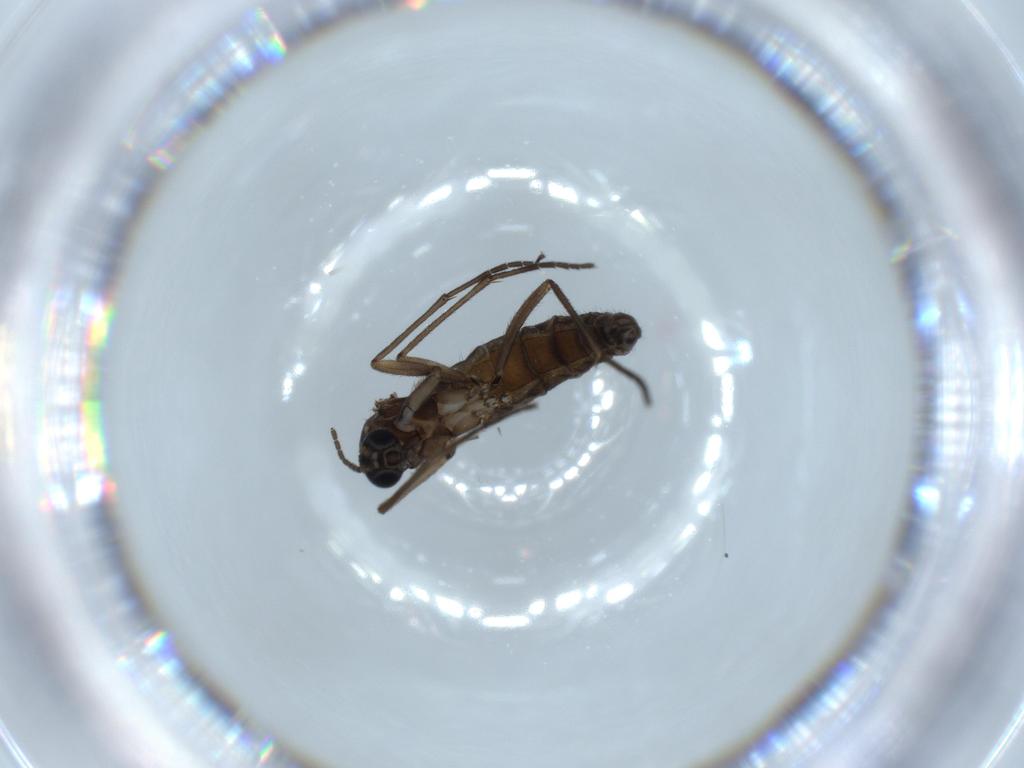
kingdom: Animalia
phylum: Arthropoda
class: Insecta
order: Diptera
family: Sciaridae
